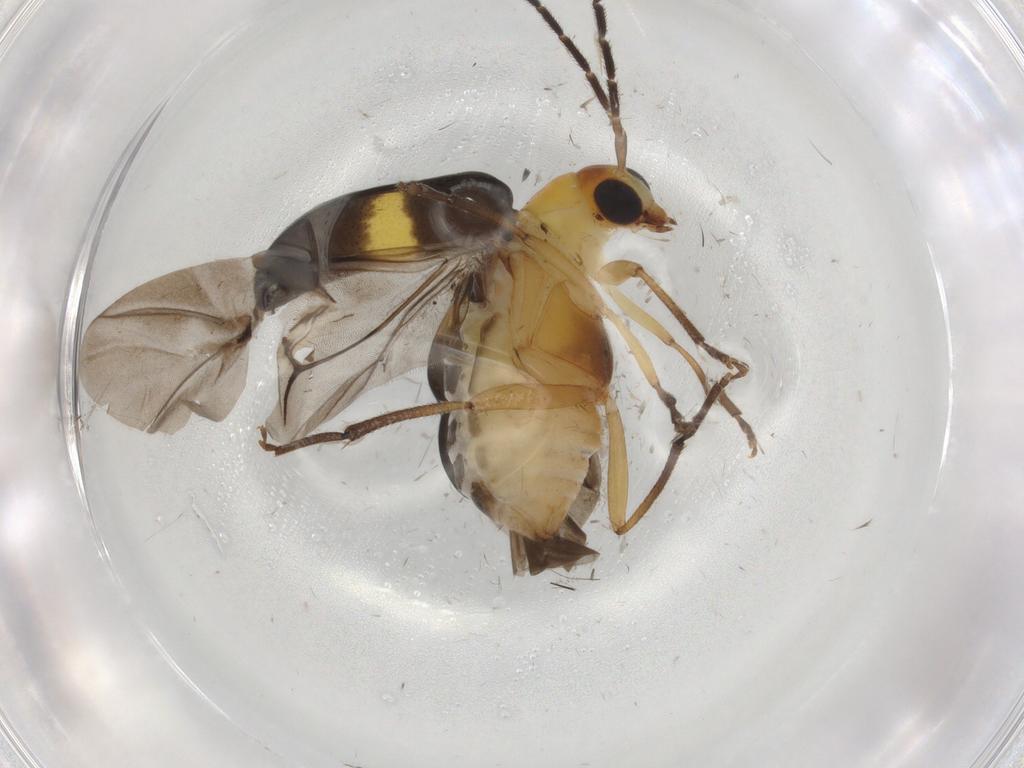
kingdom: Animalia
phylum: Arthropoda
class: Insecta
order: Coleoptera
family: Chrysomelidae
